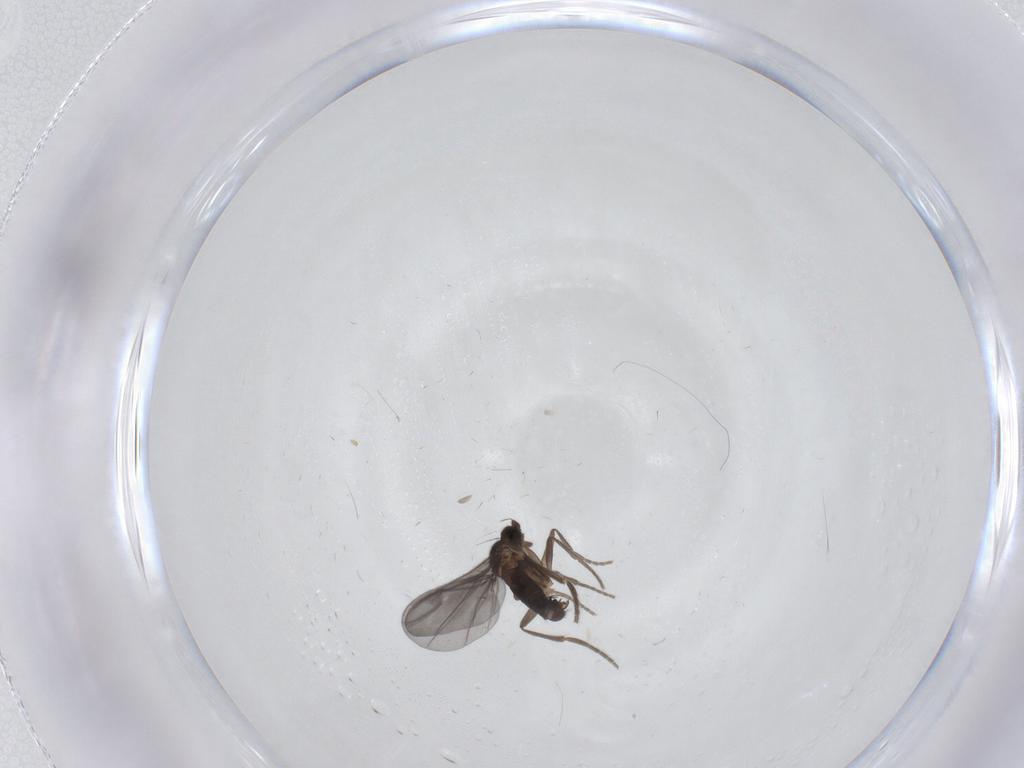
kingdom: Animalia
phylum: Arthropoda
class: Insecta
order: Diptera
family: Phoridae
